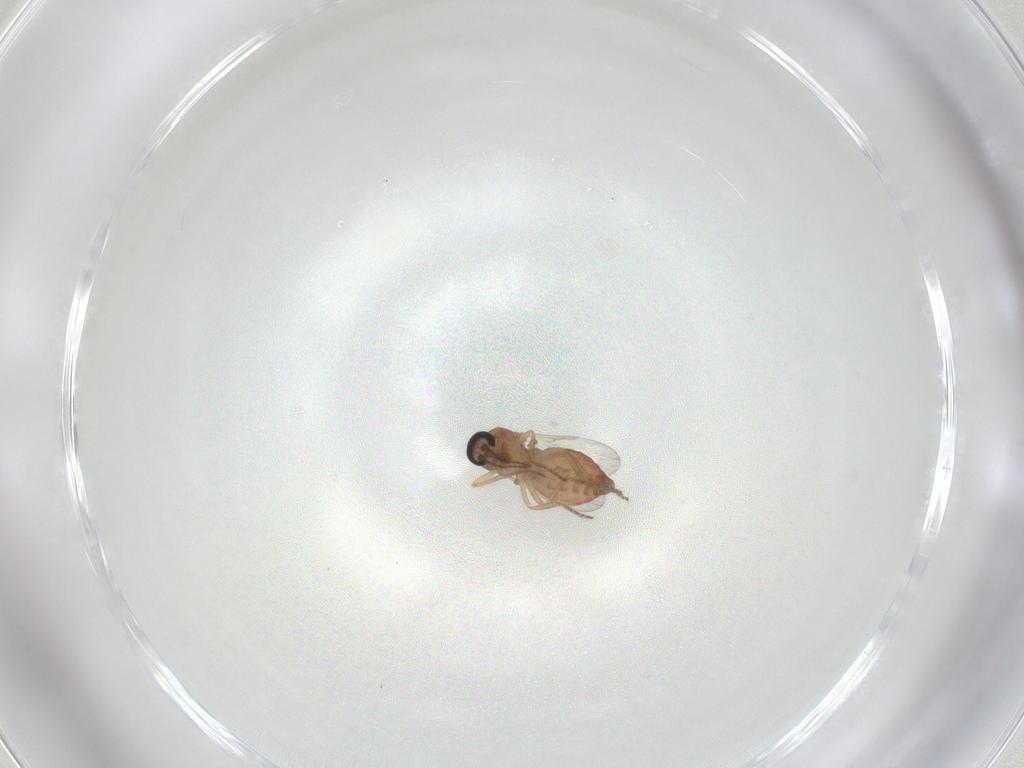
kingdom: Animalia
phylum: Arthropoda
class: Insecta
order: Diptera
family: Ceratopogonidae
